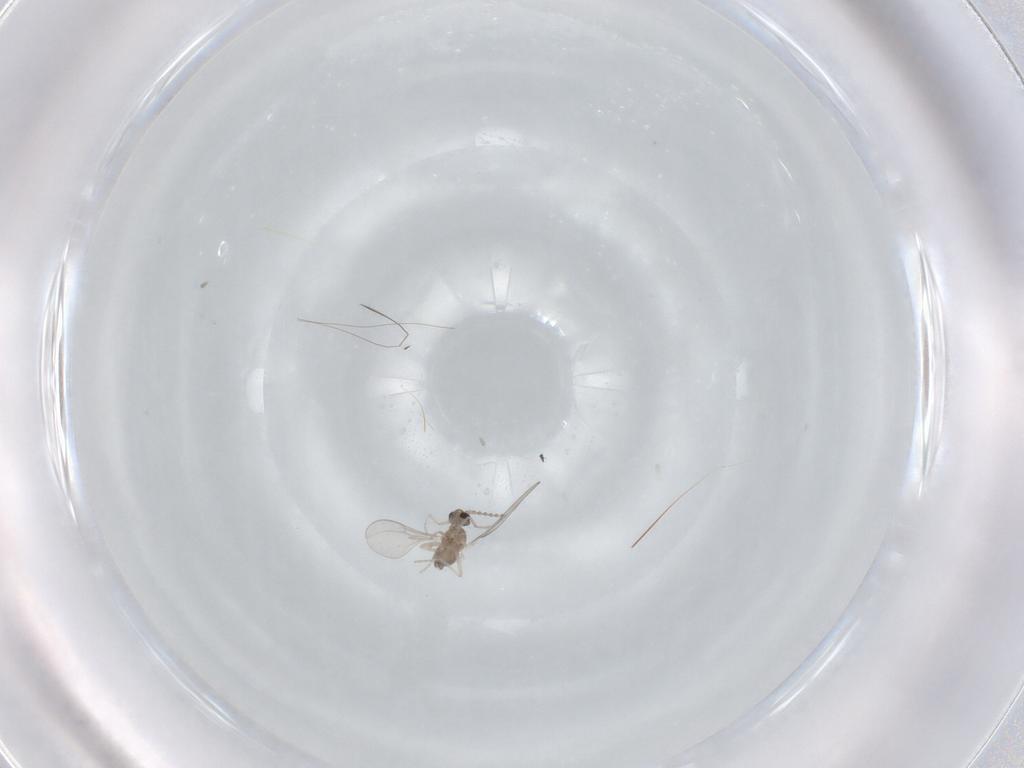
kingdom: Animalia
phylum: Arthropoda
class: Insecta
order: Diptera
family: Cecidomyiidae
